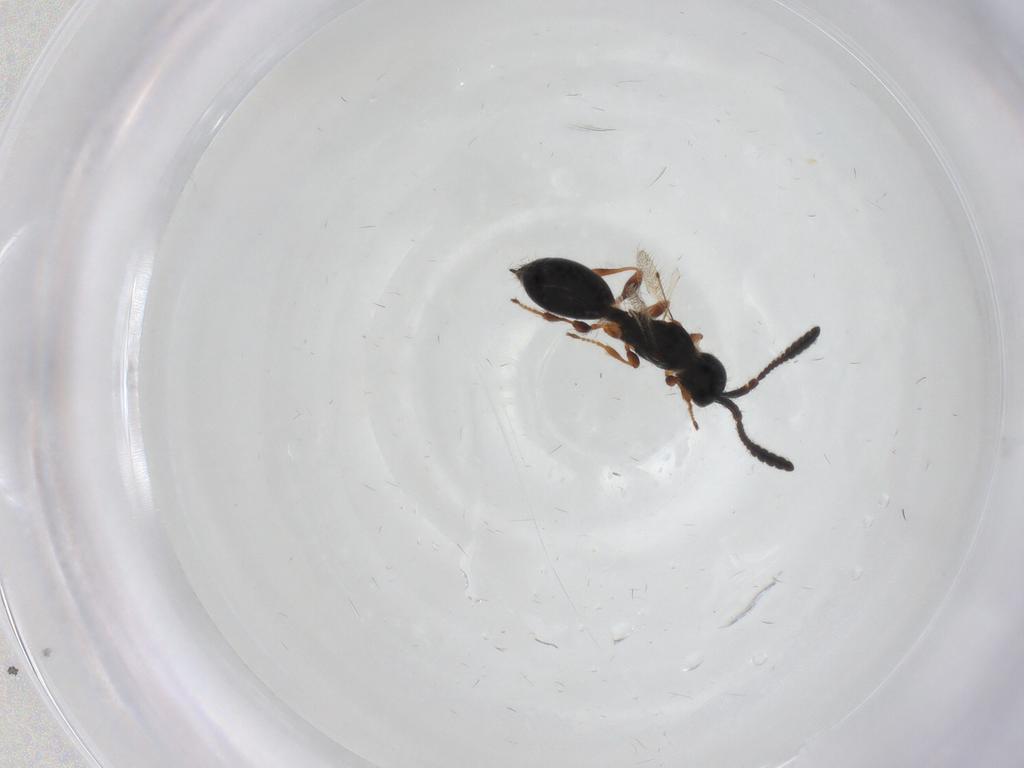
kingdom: Animalia
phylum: Arthropoda
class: Insecta
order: Hymenoptera
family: Diapriidae
